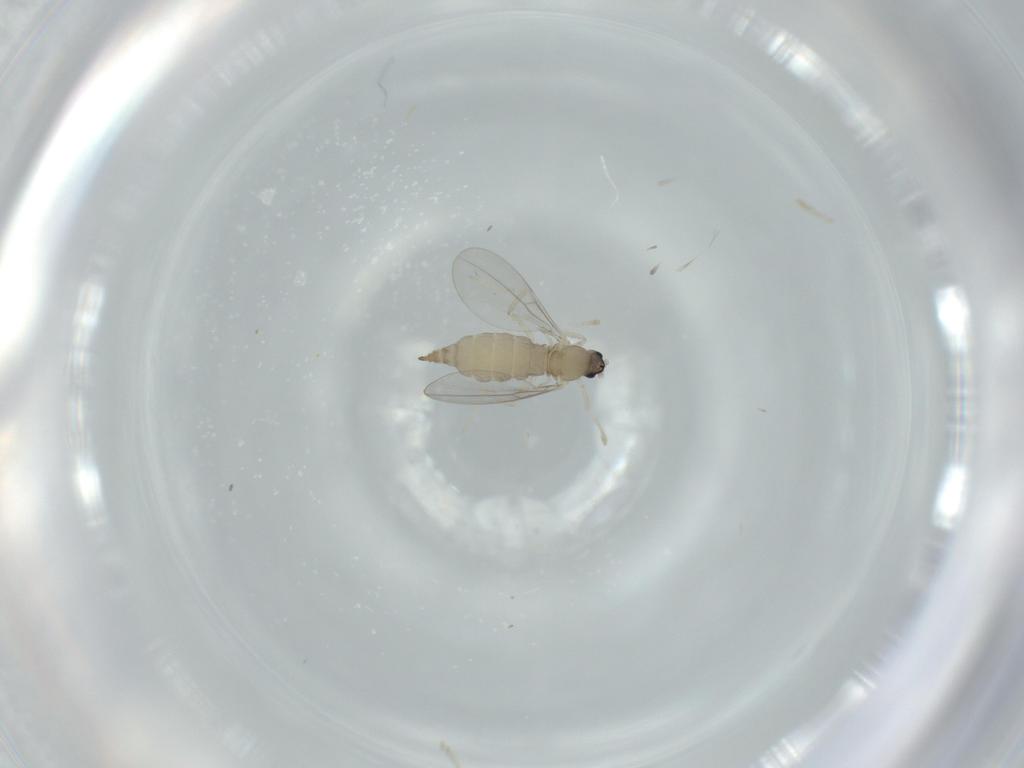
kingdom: Animalia
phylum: Arthropoda
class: Insecta
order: Diptera
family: Cecidomyiidae
